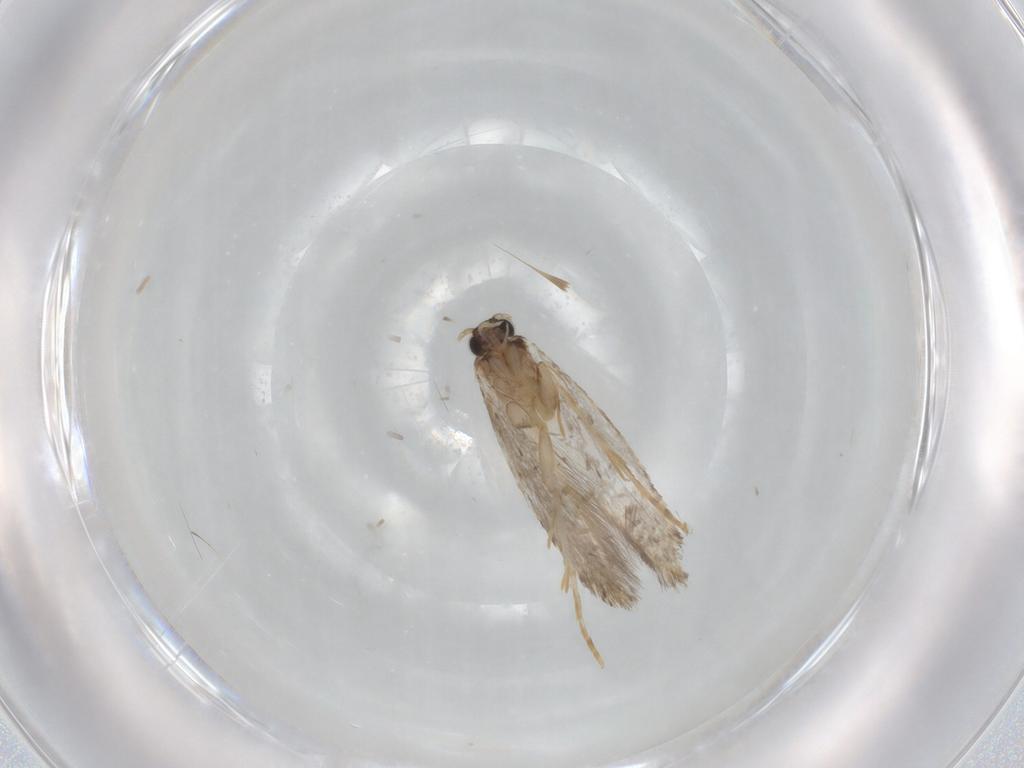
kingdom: Animalia
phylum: Arthropoda
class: Insecta
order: Lepidoptera
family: Tineidae
